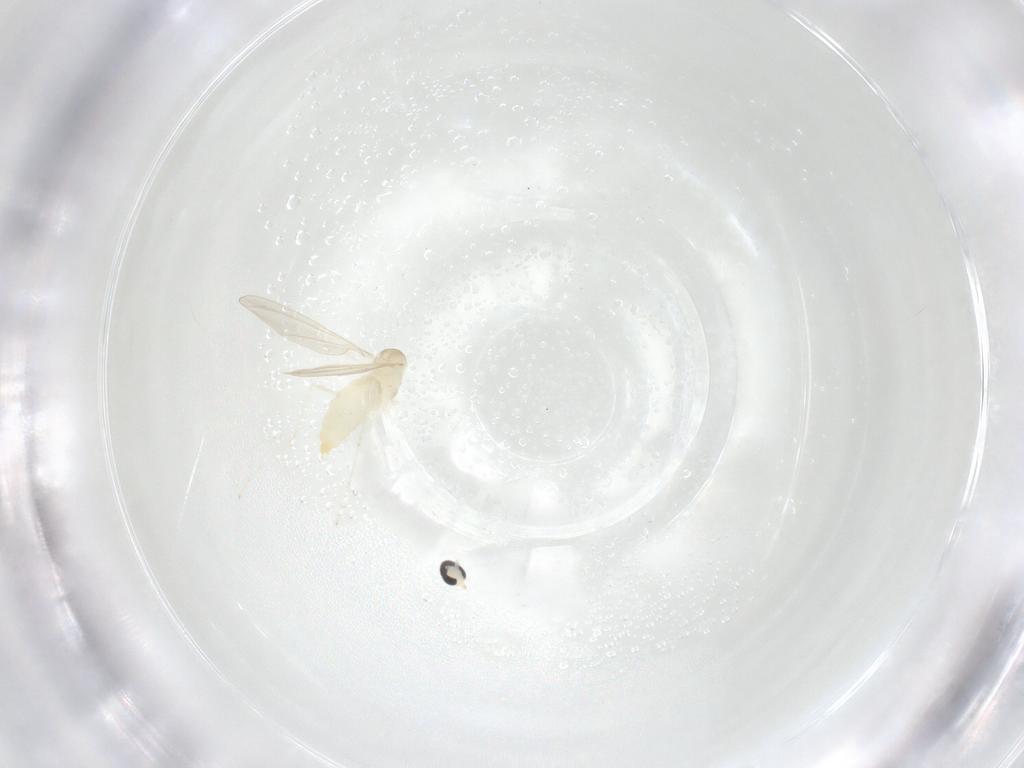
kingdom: Animalia
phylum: Arthropoda
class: Insecta
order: Diptera
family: Cecidomyiidae
